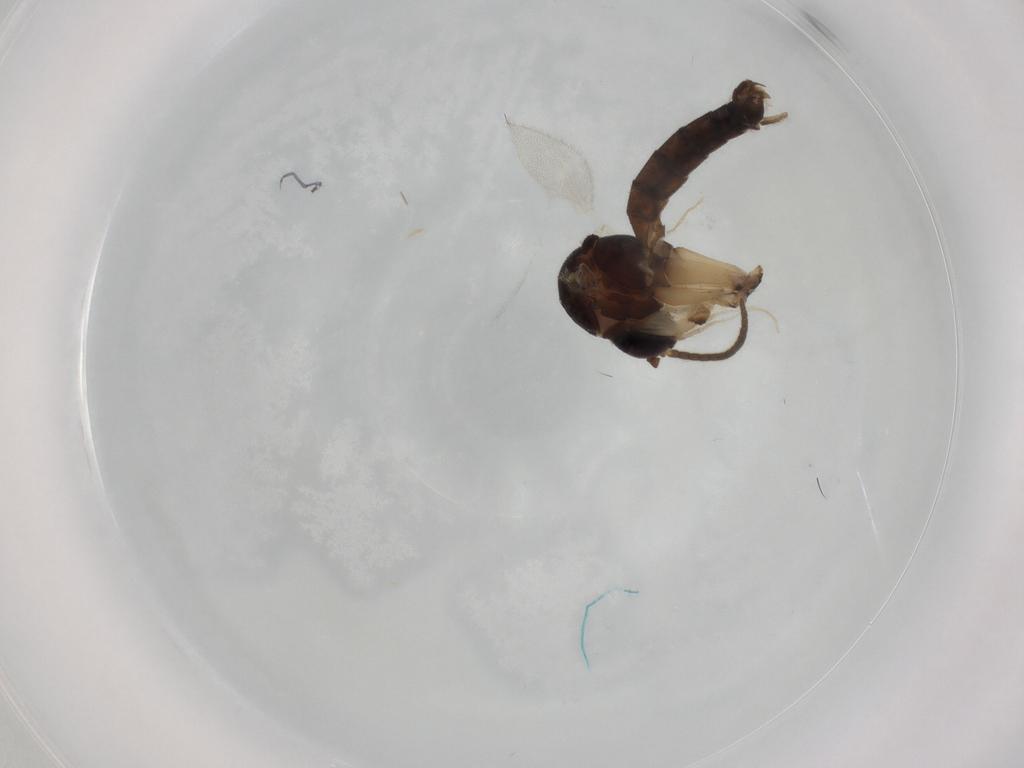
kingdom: Animalia
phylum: Arthropoda
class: Insecta
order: Diptera
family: Mycetophilidae
